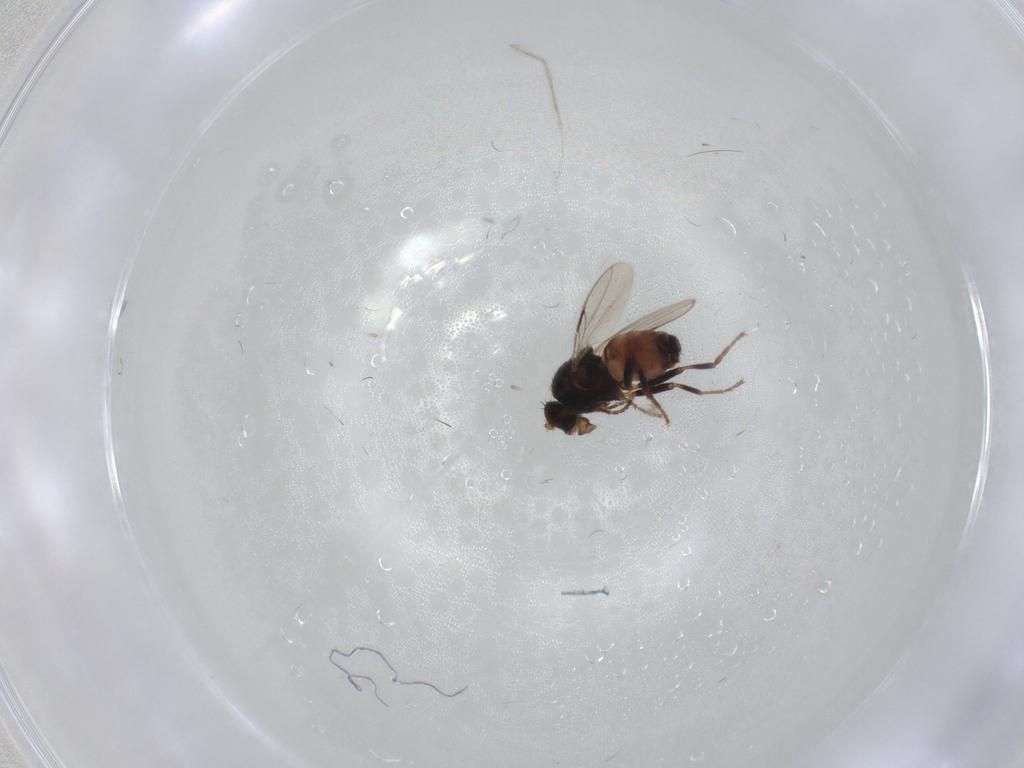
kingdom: Animalia
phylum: Arthropoda
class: Insecta
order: Diptera
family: Sphaeroceridae
